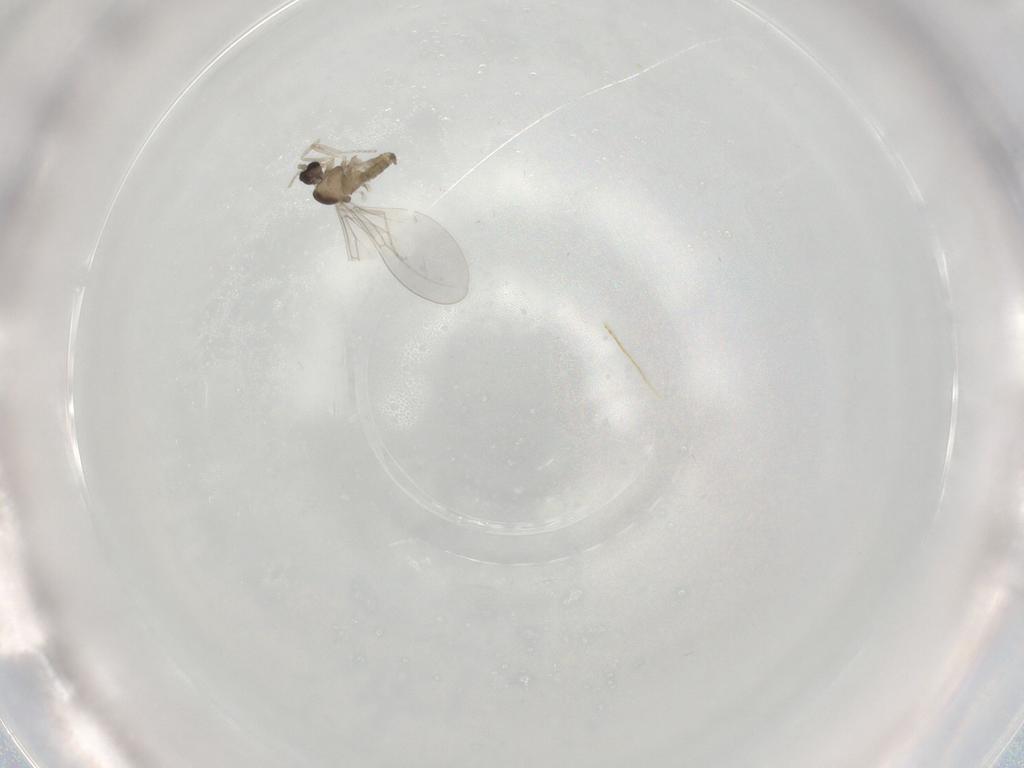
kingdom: Animalia
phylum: Arthropoda
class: Insecta
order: Diptera
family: Cecidomyiidae
